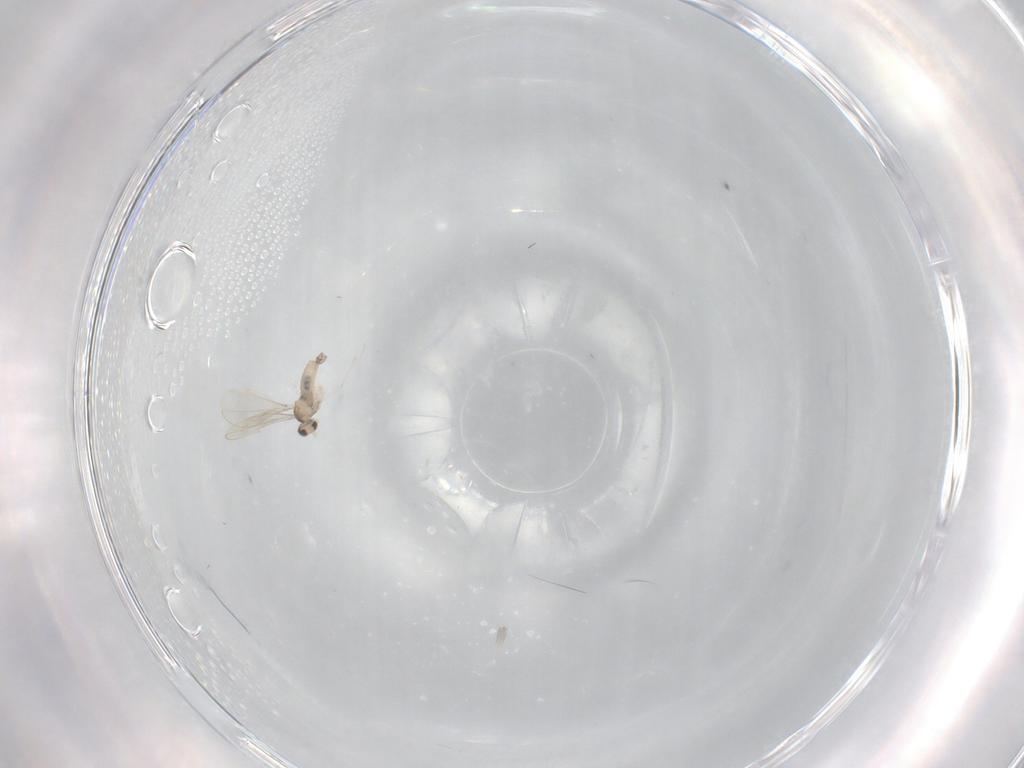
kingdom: Animalia
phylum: Arthropoda
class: Insecta
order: Diptera
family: Cecidomyiidae
